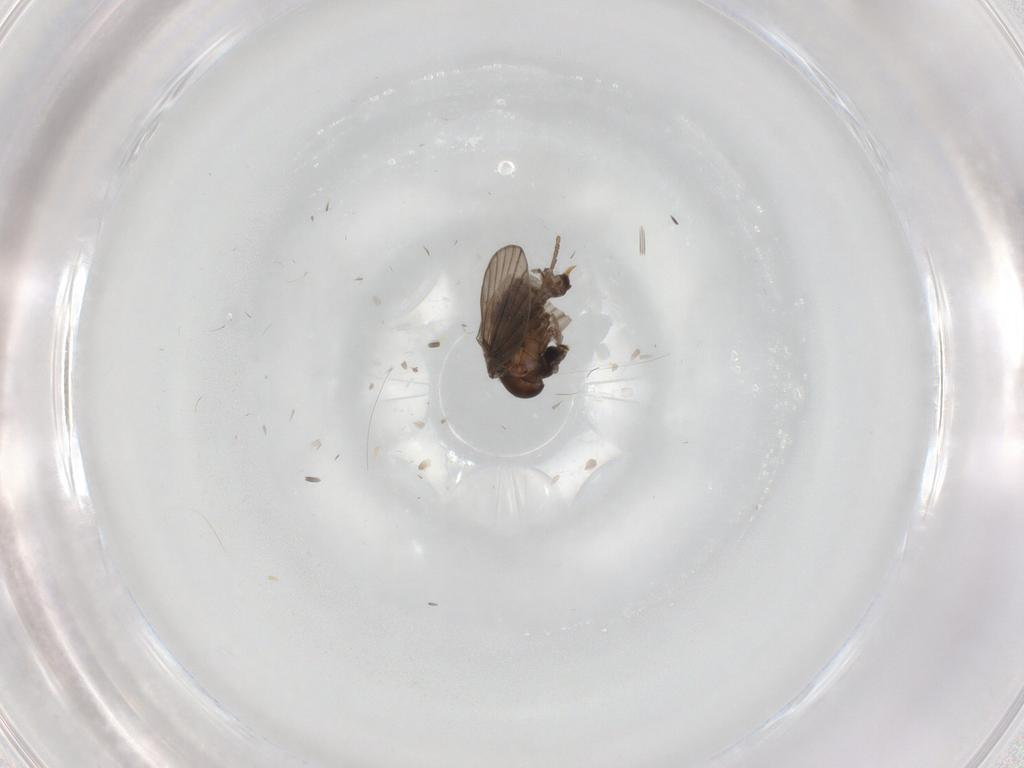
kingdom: Animalia
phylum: Arthropoda
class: Insecta
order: Diptera
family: Psychodidae
